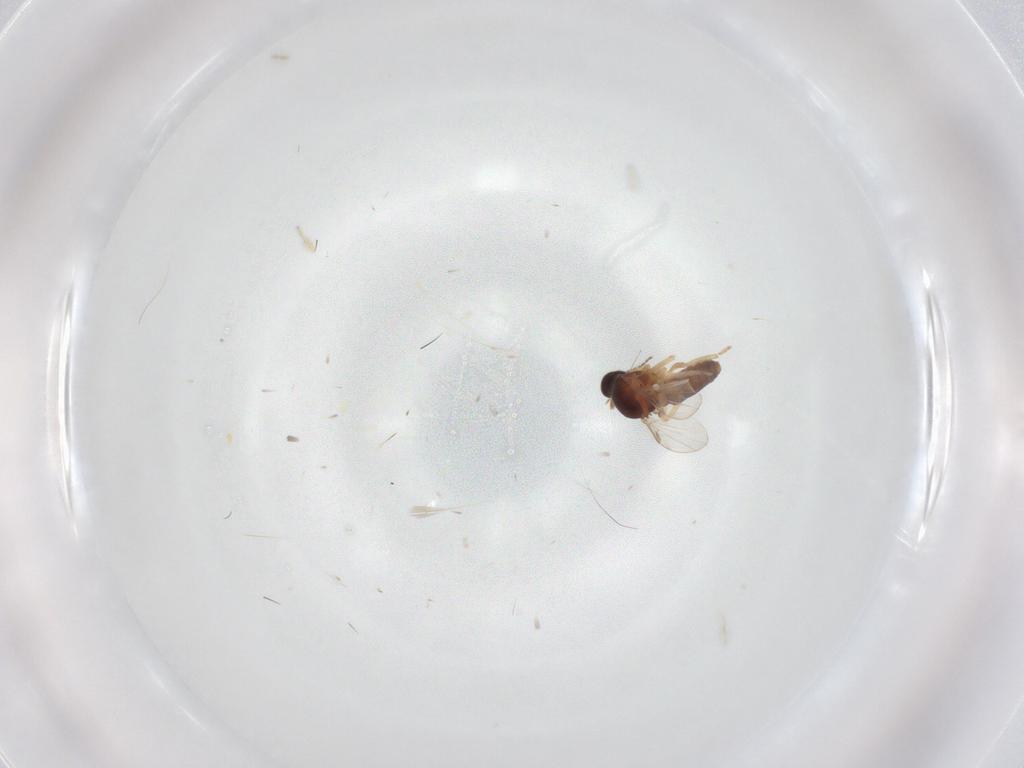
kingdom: Animalia
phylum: Arthropoda
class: Insecta
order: Diptera
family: Ceratopogonidae
